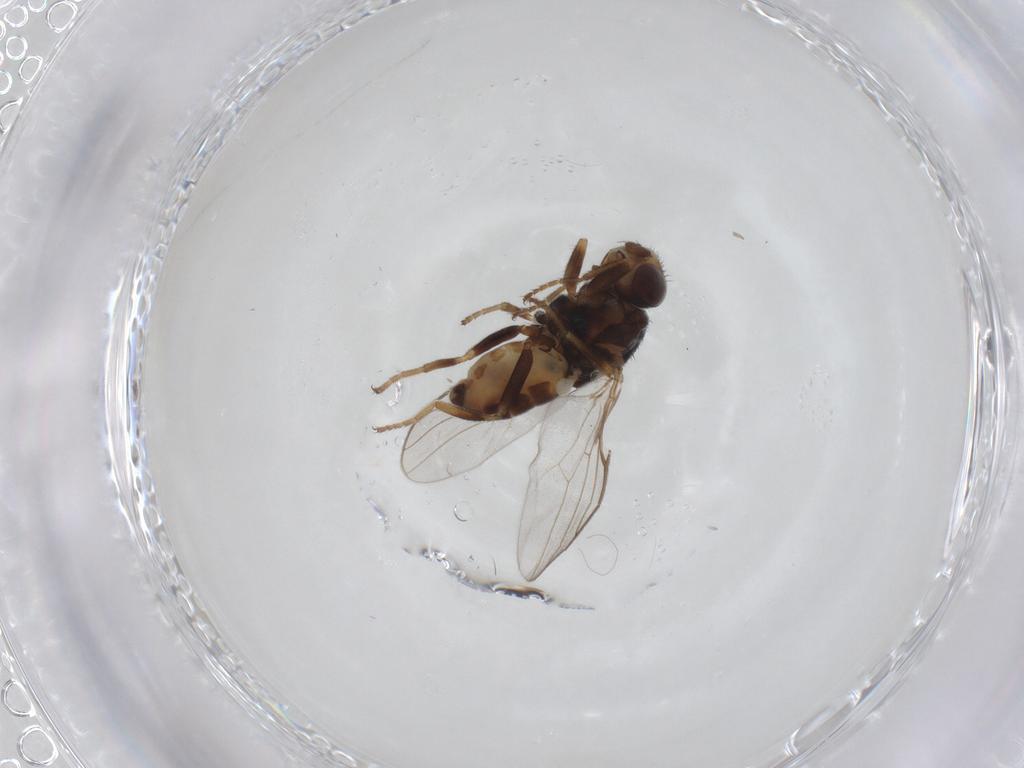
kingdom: Animalia
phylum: Arthropoda
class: Insecta
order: Diptera
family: Chloropidae
